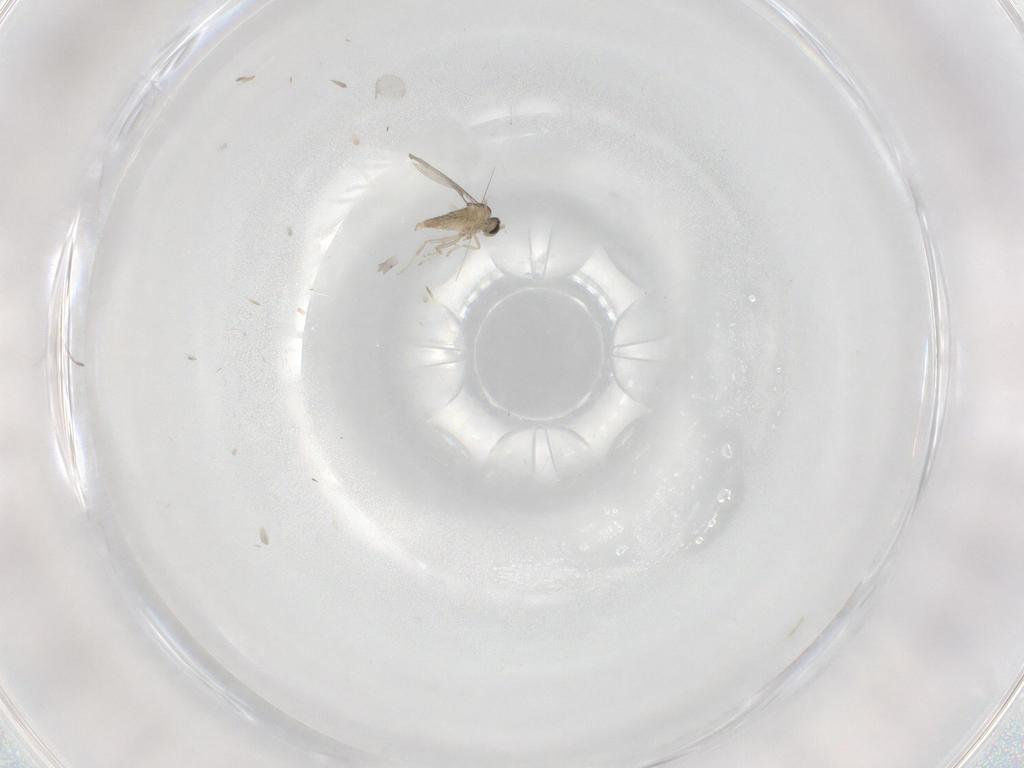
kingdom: Animalia
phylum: Arthropoda
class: Insecta
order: Diptera
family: Cecidomyiidae
